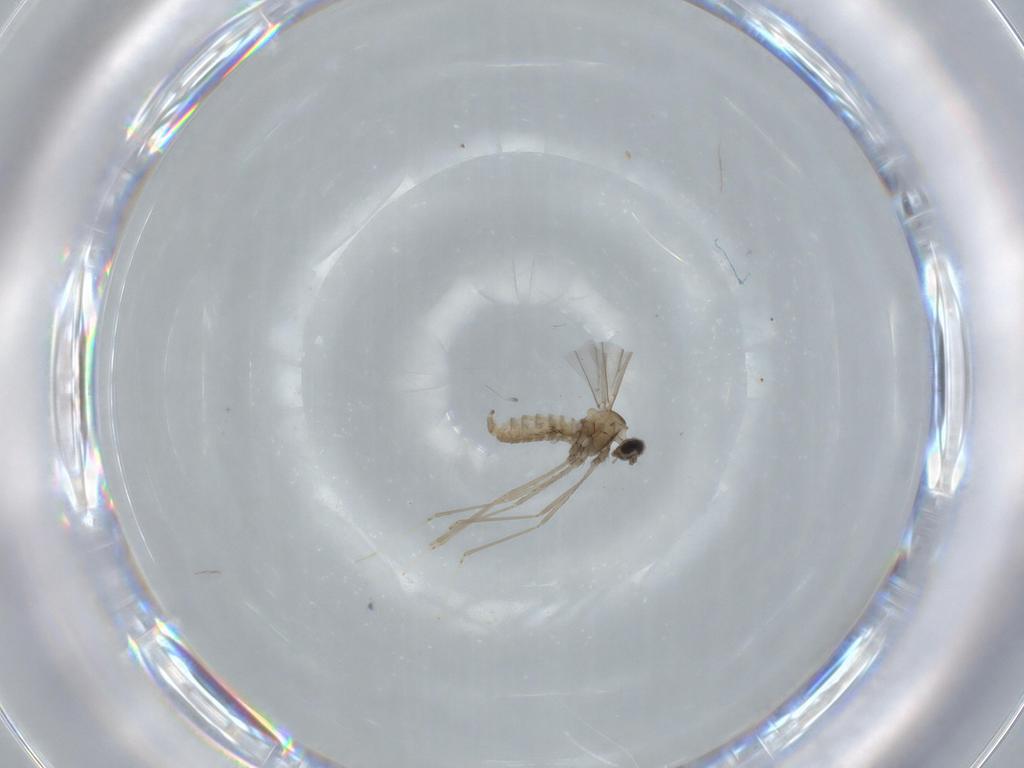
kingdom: Animalia
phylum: Arthropoda
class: Insecta
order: Diptera
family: Cecidomyiidae
